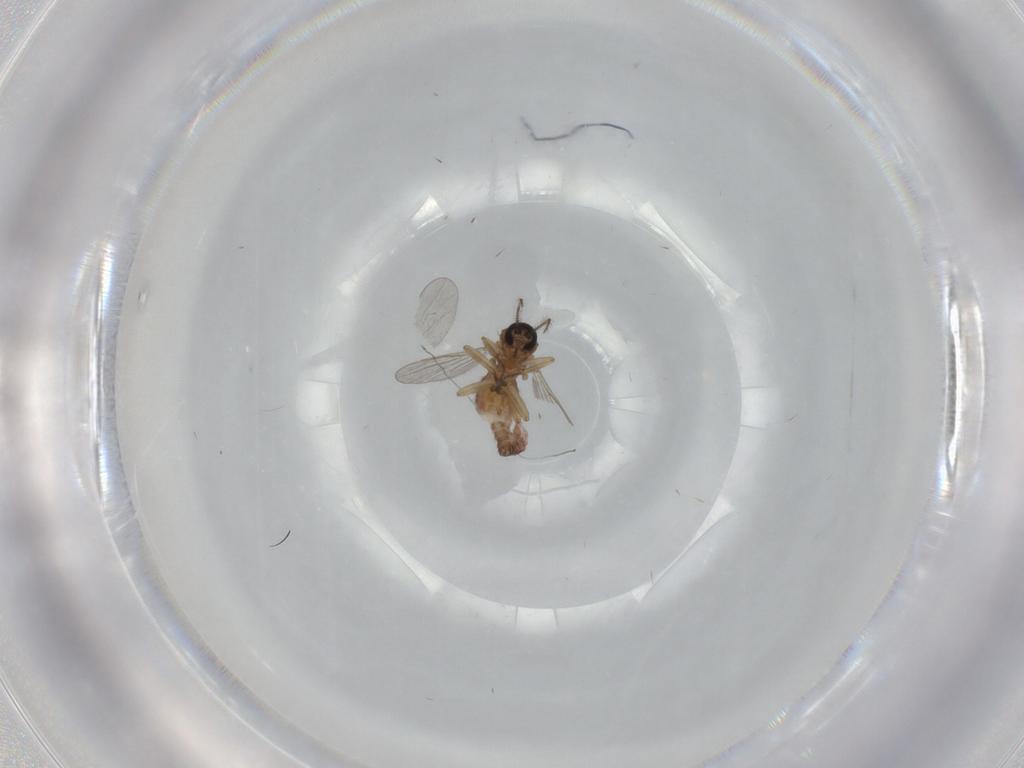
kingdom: Animalia
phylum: Arthropoda
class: Insecta
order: Diptera
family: Ceratopogonidae
